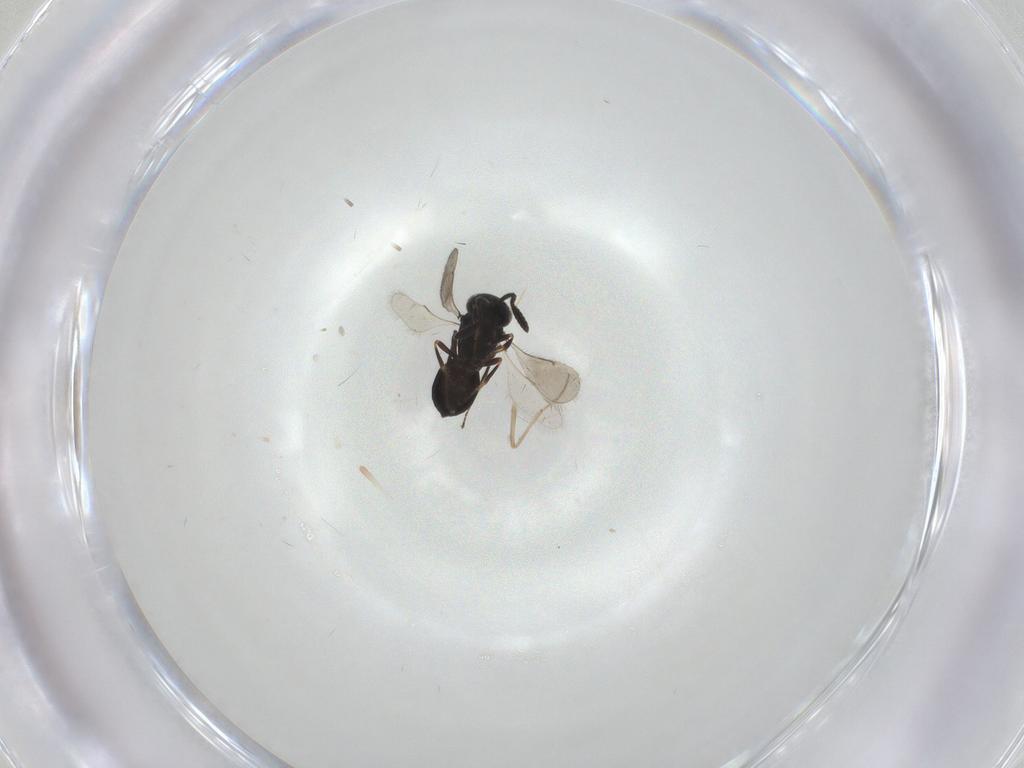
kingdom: Animalia
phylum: Arthropoda
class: Insecta
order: Hymenoptera
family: Scelionidae
